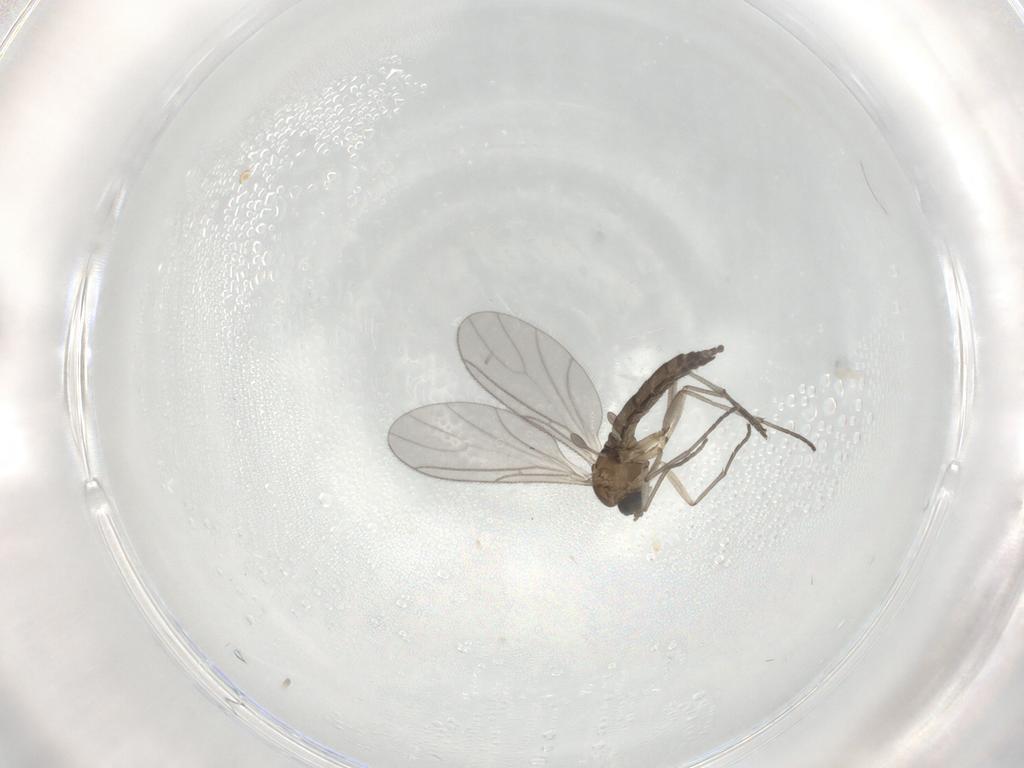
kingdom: Animalia
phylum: Arthropoda
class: Insecta
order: Diptera
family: Sciaridae
